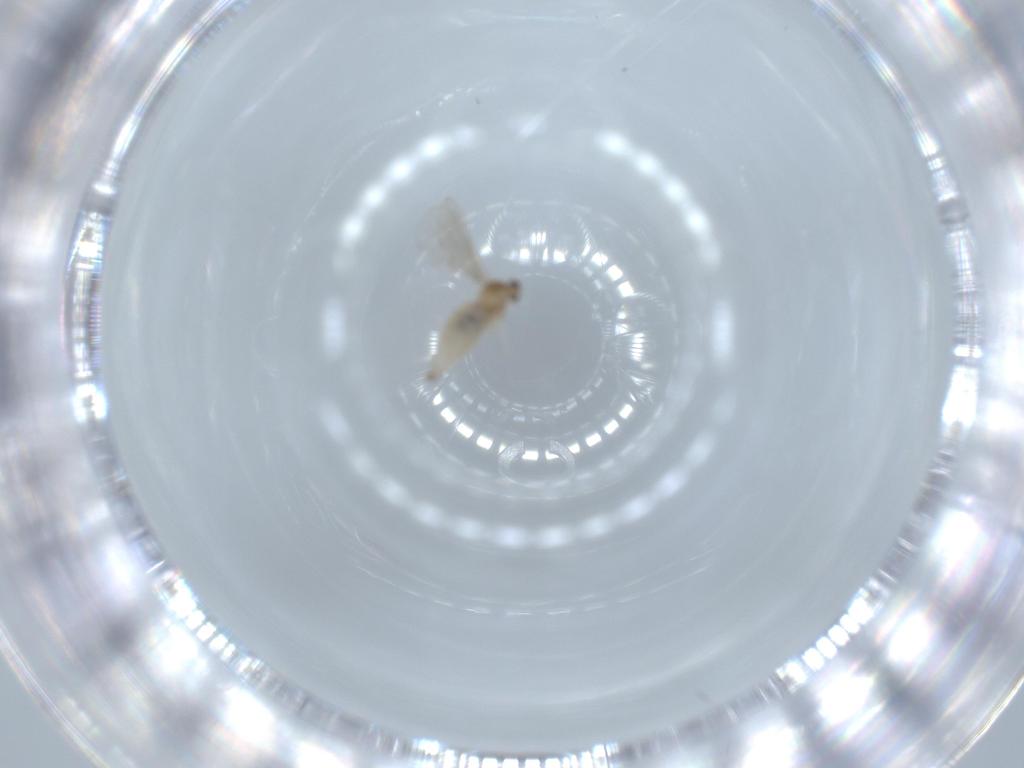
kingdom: Animalia
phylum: Arthropoda
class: Insecta
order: Diptera
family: Cecidomyiidae
